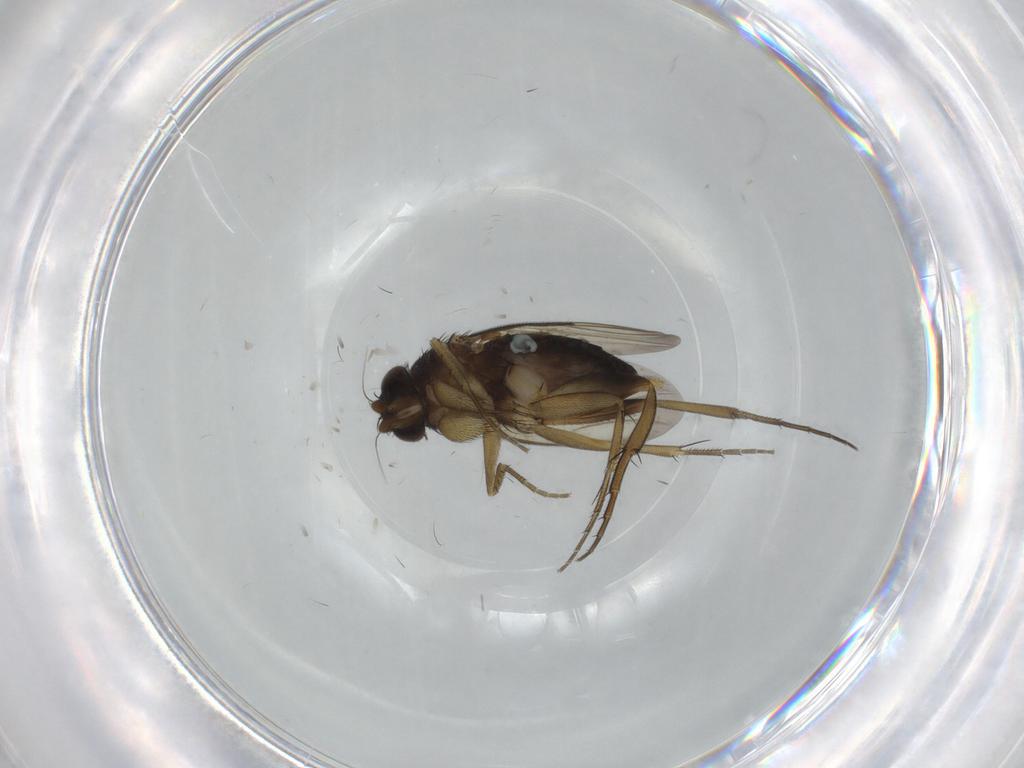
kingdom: Animalia
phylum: Arthropoda
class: Insecta
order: Diptera
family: Phoridae
